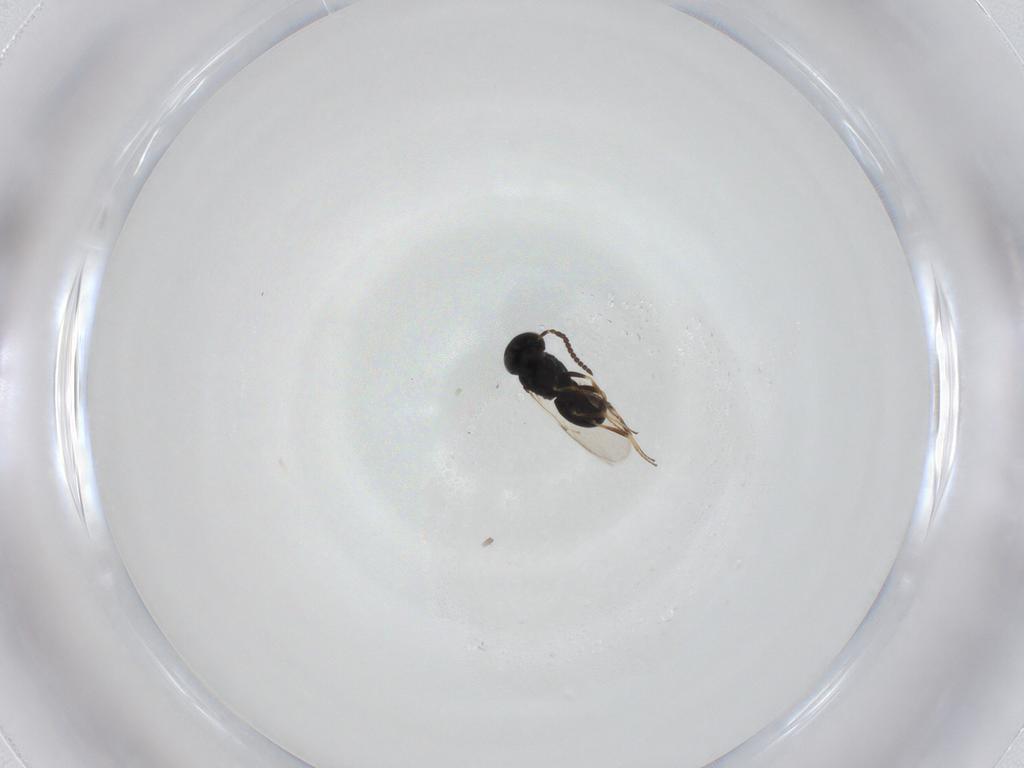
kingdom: Animalia
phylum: Arthropoda
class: Insecta
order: Hymenoptera
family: Scelionidae
